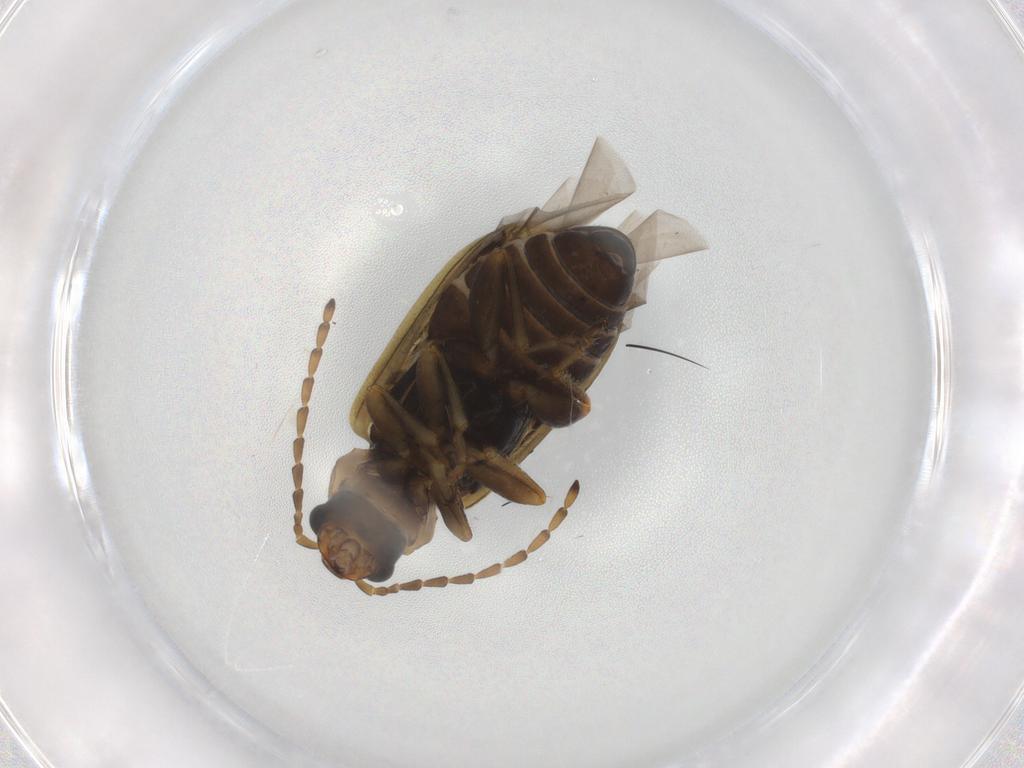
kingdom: Animalia
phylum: Arthropoda
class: Insecta
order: Coleoptera
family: Chrysomelidae
